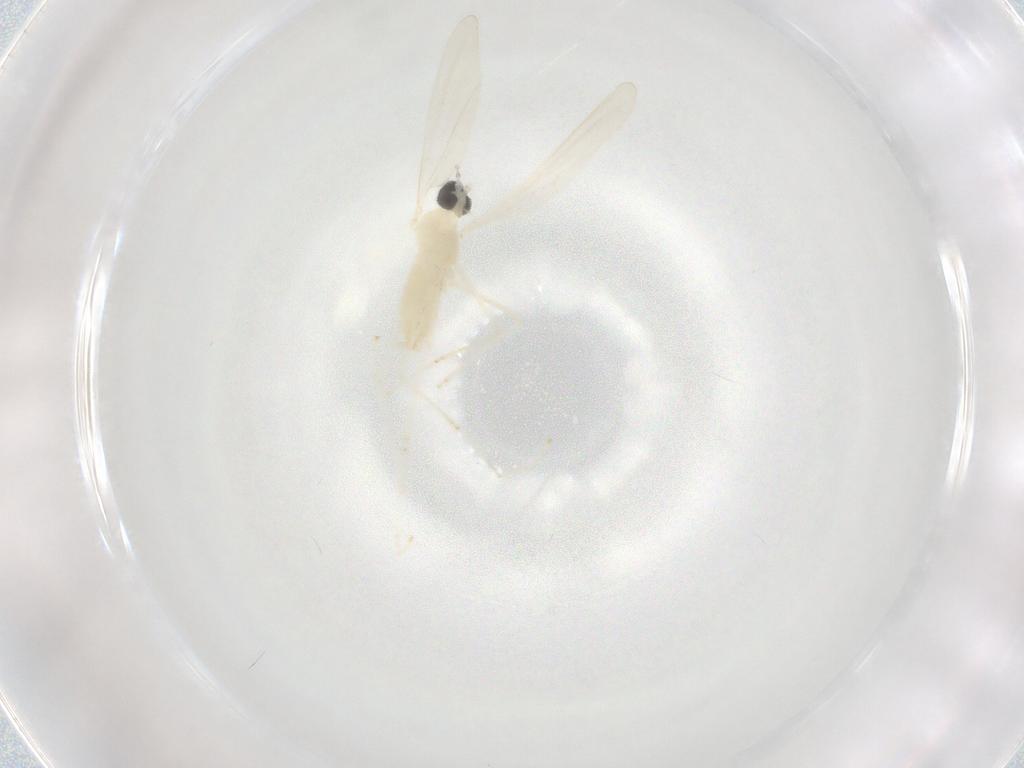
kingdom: Animalia
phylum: Arthropoda
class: Insecta
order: Diptera
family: Cecidomyiidae
